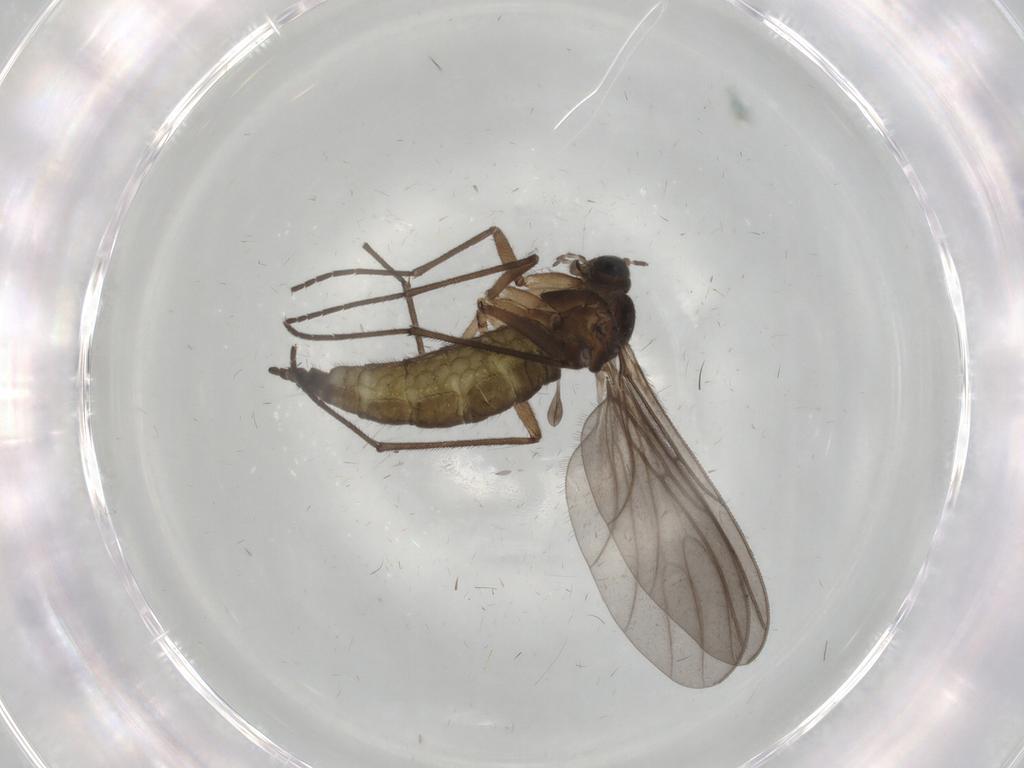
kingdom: Animalia
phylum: Arthropoda
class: Insecta
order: Diptera
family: Sciaridae
